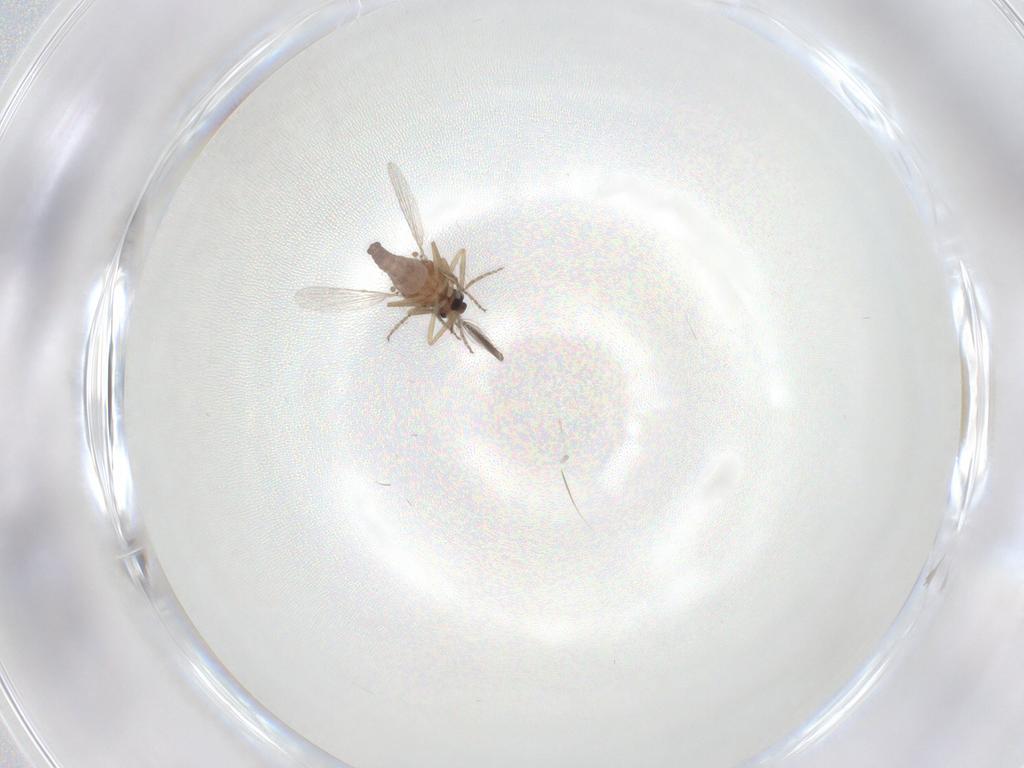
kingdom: Animalia
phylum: Arthropoda
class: Insecta
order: Diptera
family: Ceratopogonidae
